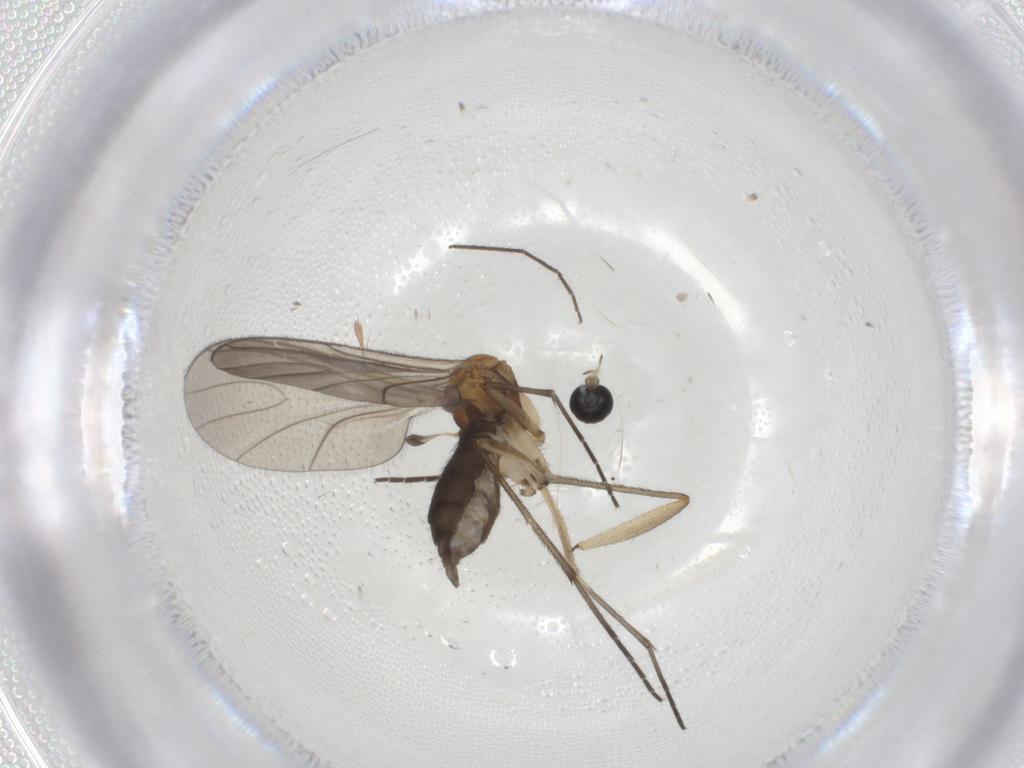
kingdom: Animalia
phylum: Arthropoda
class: Insecta
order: Diptera
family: Sciaridae
